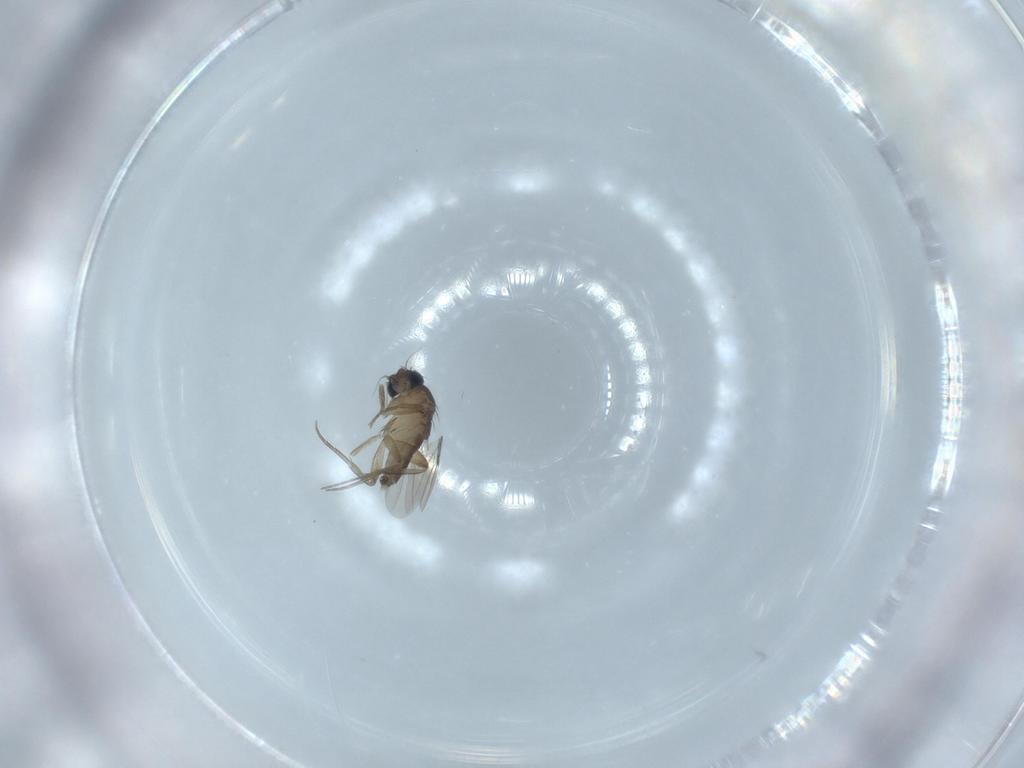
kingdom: Animalia
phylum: Arthropoda
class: Insecta
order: Diptera
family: Phoridae
